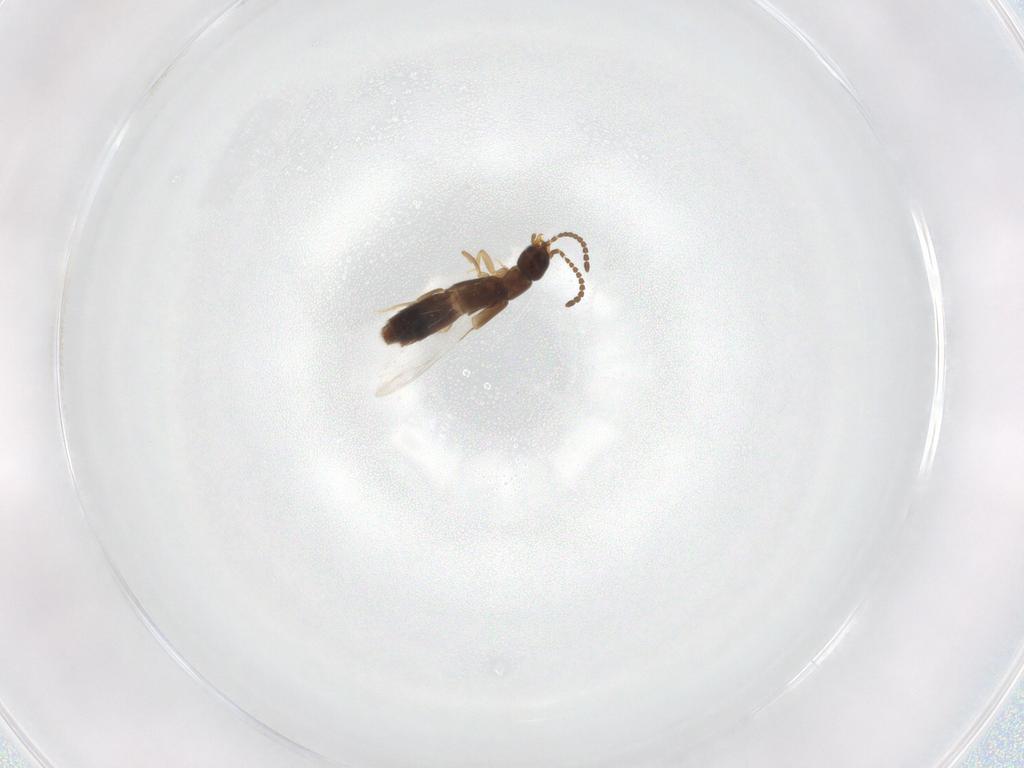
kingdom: Animalia
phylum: Arthropoda
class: Insecta
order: Coleoptera
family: Staphylinidae
